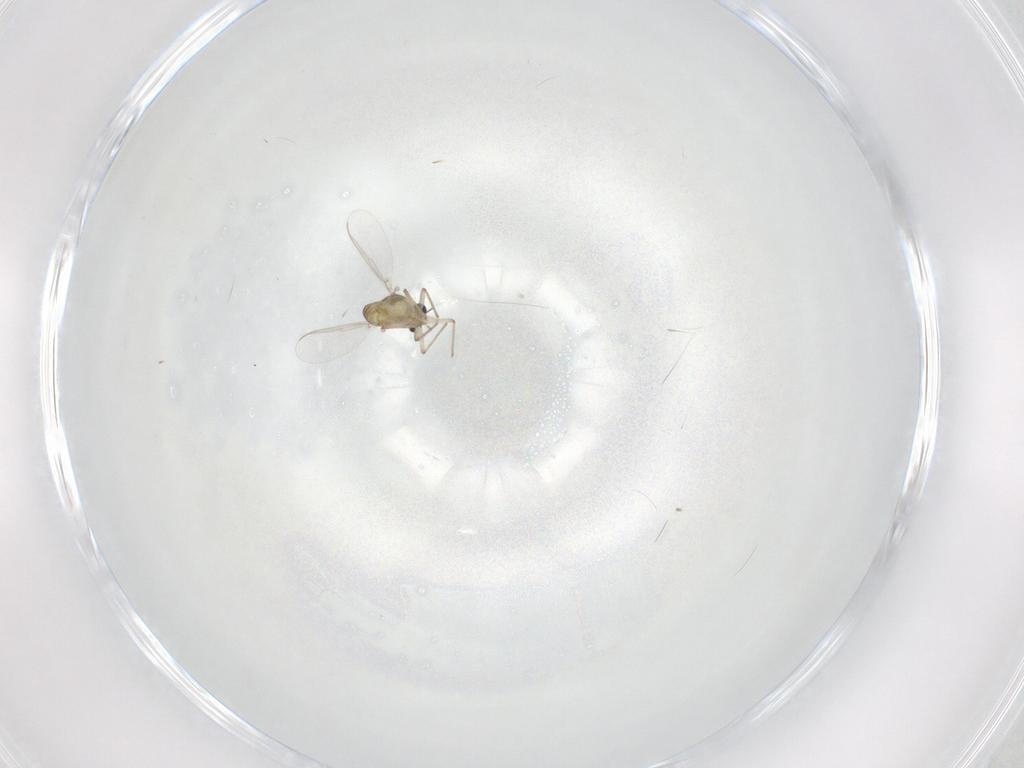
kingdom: Animalia
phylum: Arthropoda
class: Insecta
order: Diptera
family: Chironomidae
